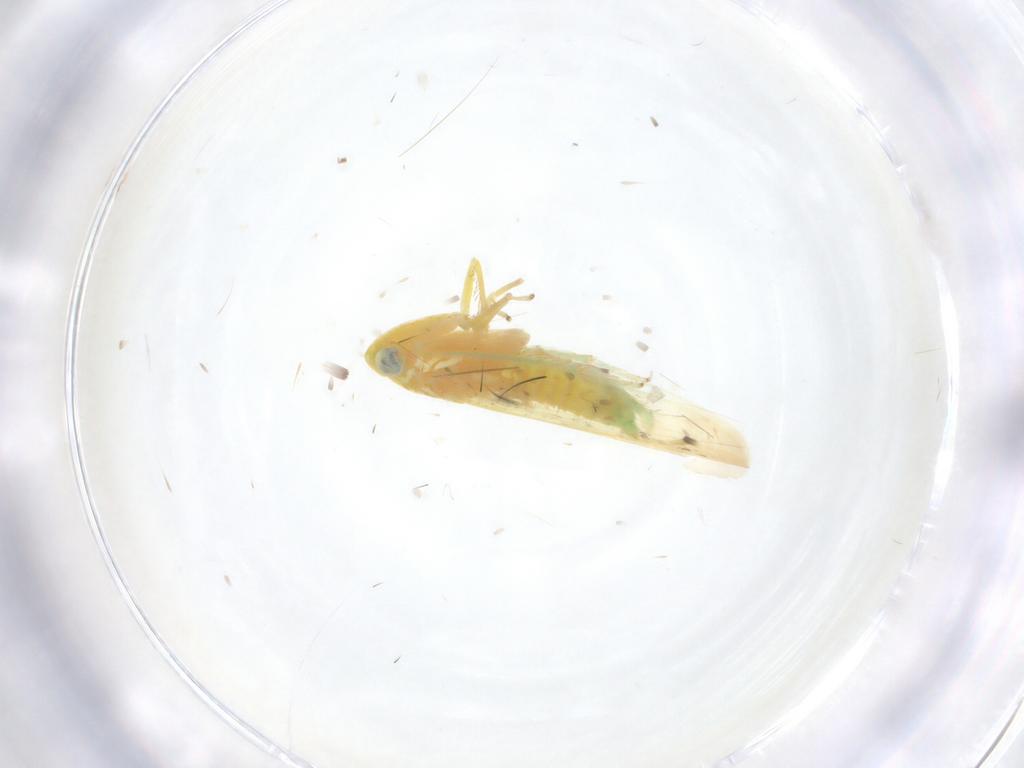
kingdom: Animalia
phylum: Arthropoda
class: Insecta
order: Hemiptera
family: Cicadellidae
